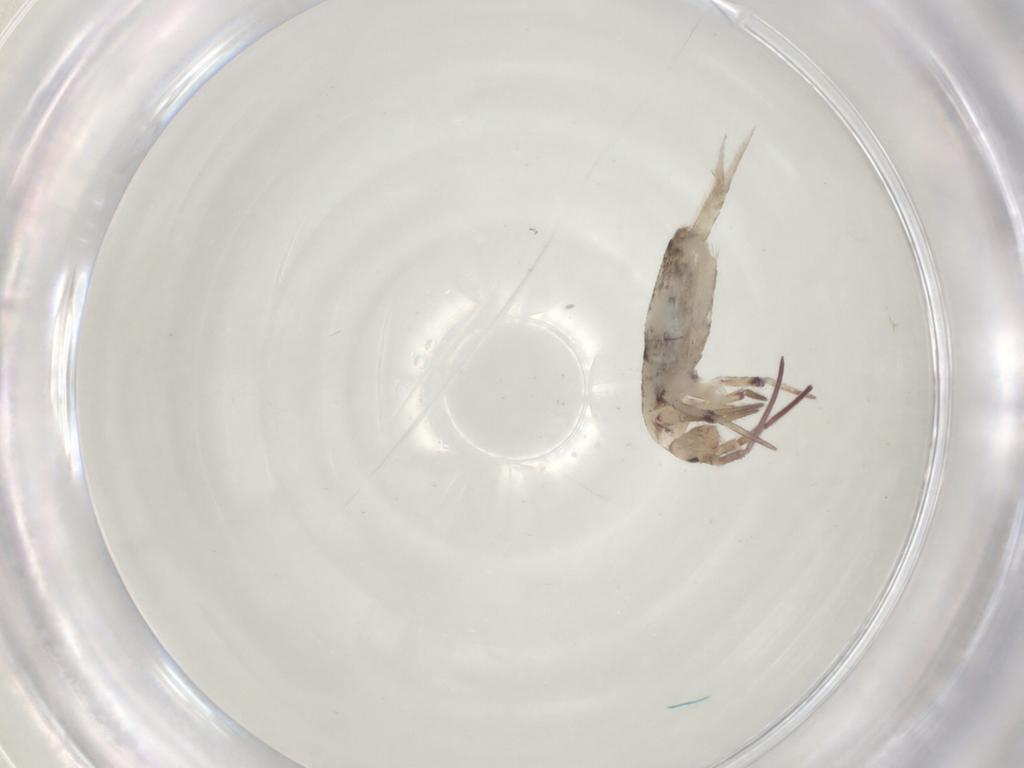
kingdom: Animalia
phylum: Arthropoda
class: Collembola
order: Entomobryomorpha
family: Entomobryidae
